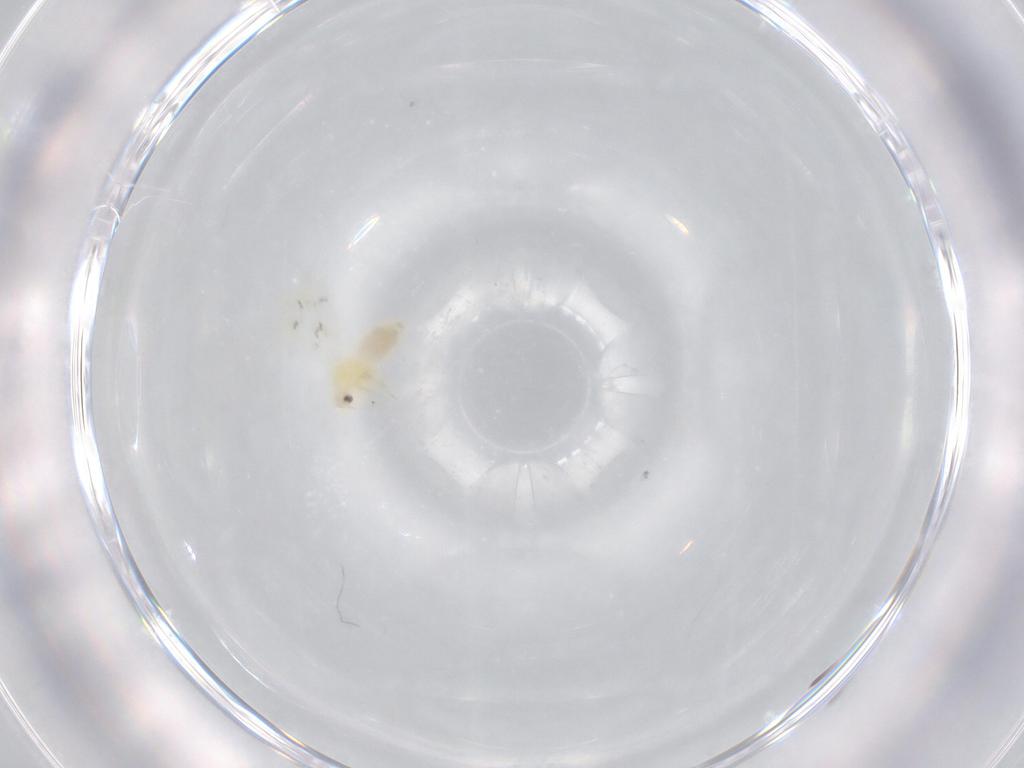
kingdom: Animalia
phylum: Arthropoda
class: Insecta
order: Hemiptera
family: Aleyrodidae
